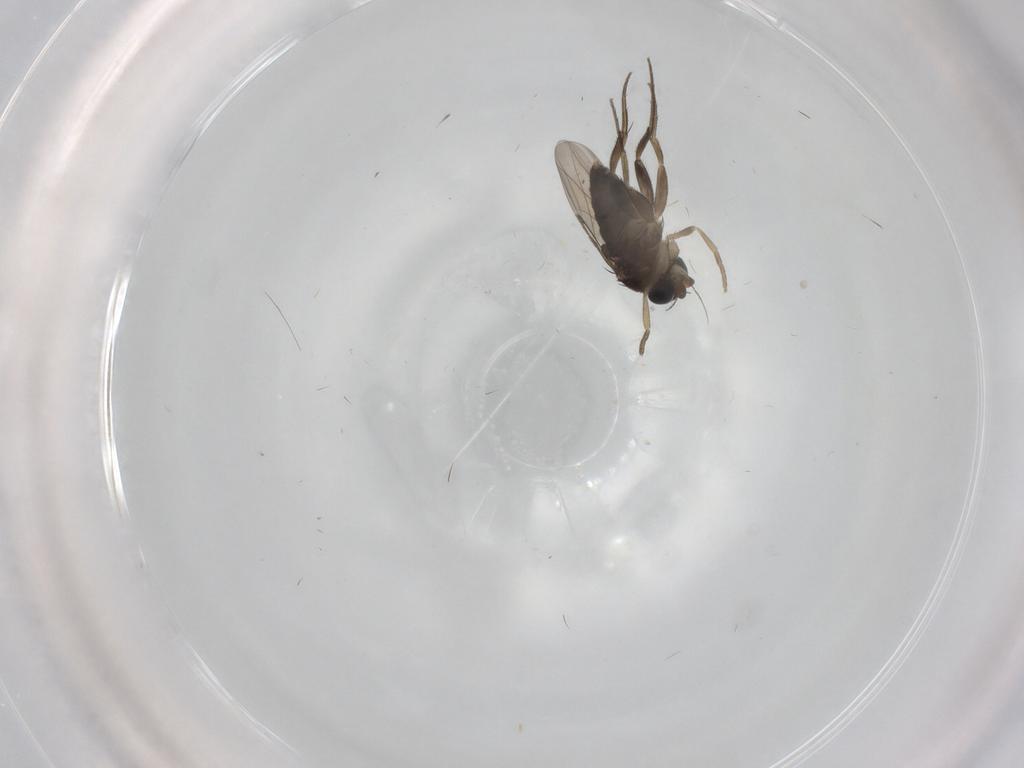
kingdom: Animalia
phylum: Arthropoda
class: Insecta
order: Diptera
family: Phoridae
